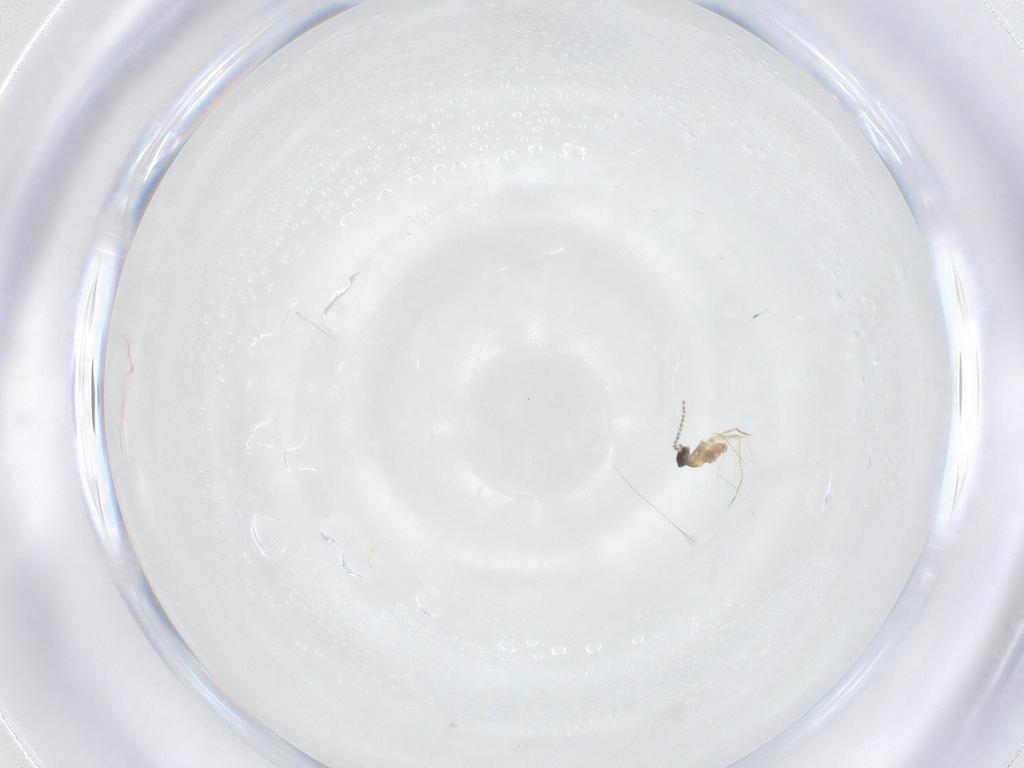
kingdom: Animalia
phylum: Arthropoda
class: Insecta
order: Diptera
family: Cecidomyiidae
